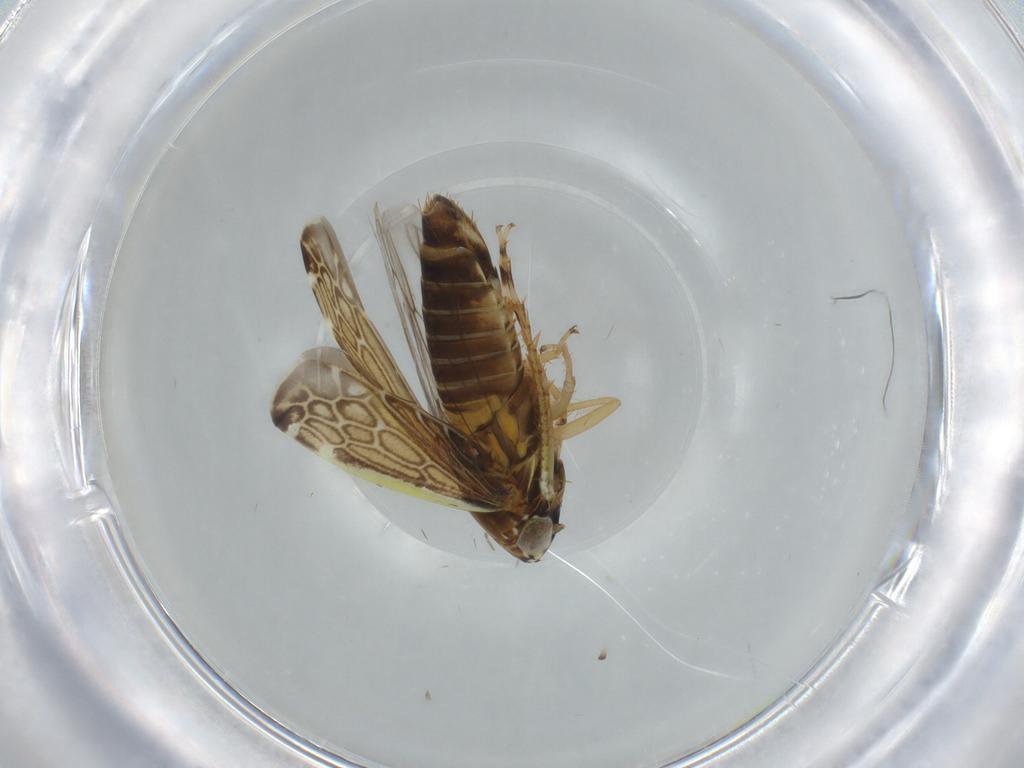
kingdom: Animalia
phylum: Arthropoda
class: Insecta
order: Hemiptera
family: Cicadellidae
